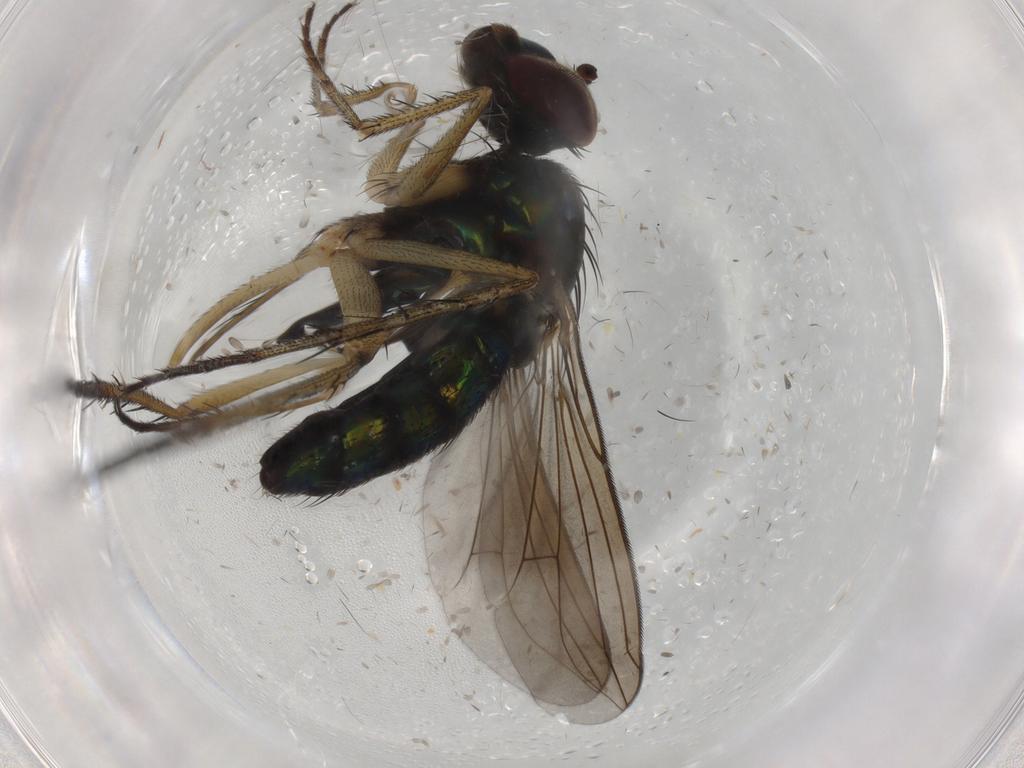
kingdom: Animalia
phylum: Arthropoda
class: Insecta
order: Diptera
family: Dolichopodidae
